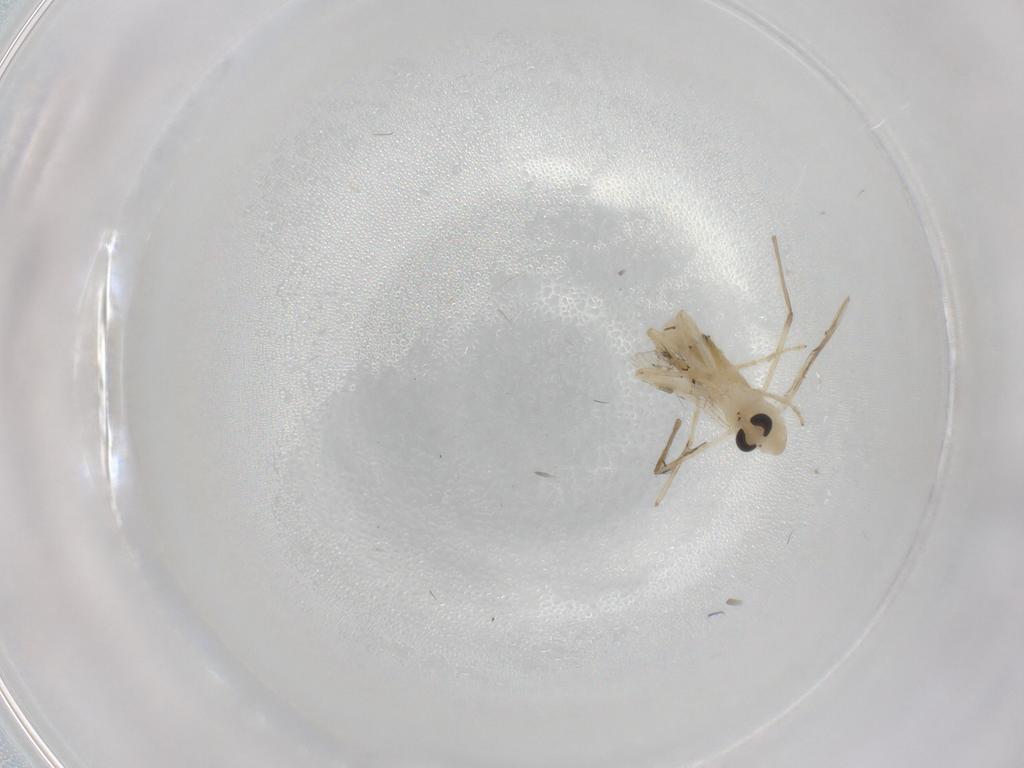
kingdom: Animalia
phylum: Arthropoda
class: Insecta
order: Diptera
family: Chironomidae
